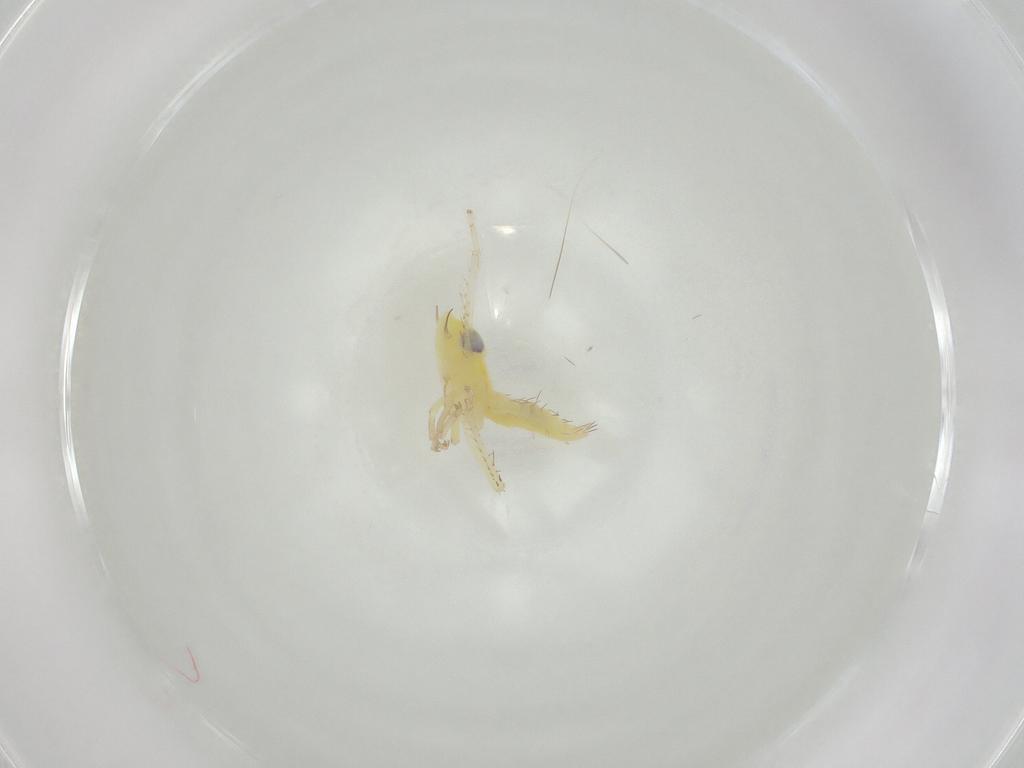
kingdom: Animalia
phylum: Arthropoda
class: Insecta
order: Hemiptera
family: Cicadellidae
